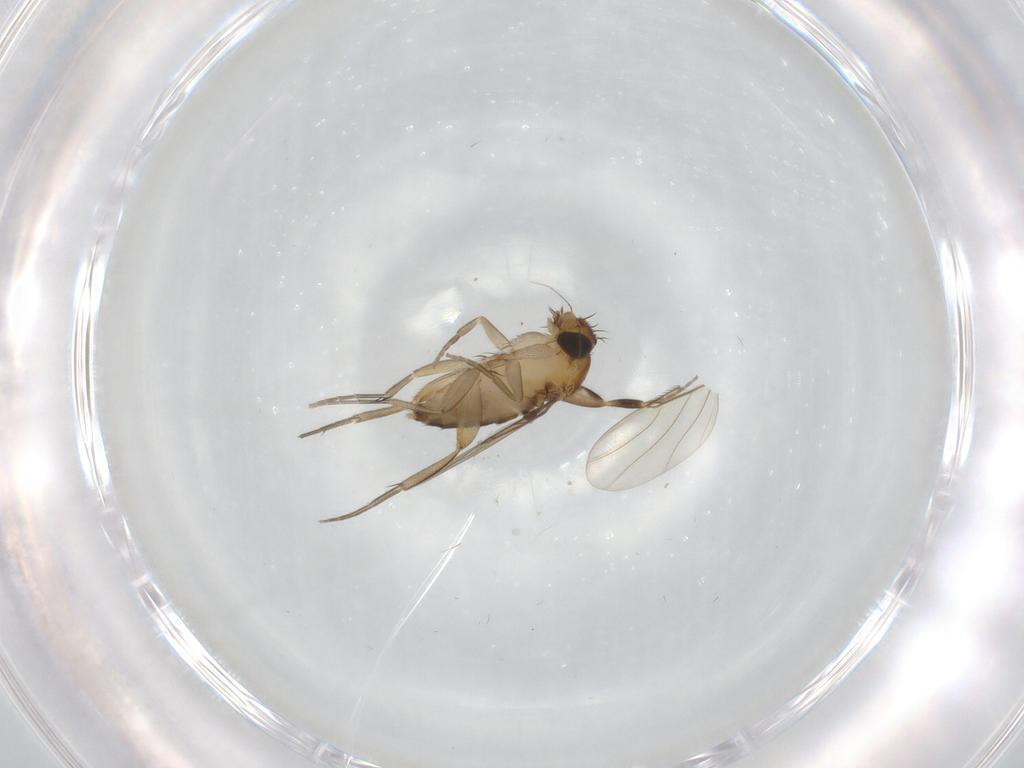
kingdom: Animalia
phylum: Arthropoda
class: Insecta
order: Diptera
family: Phoridae
